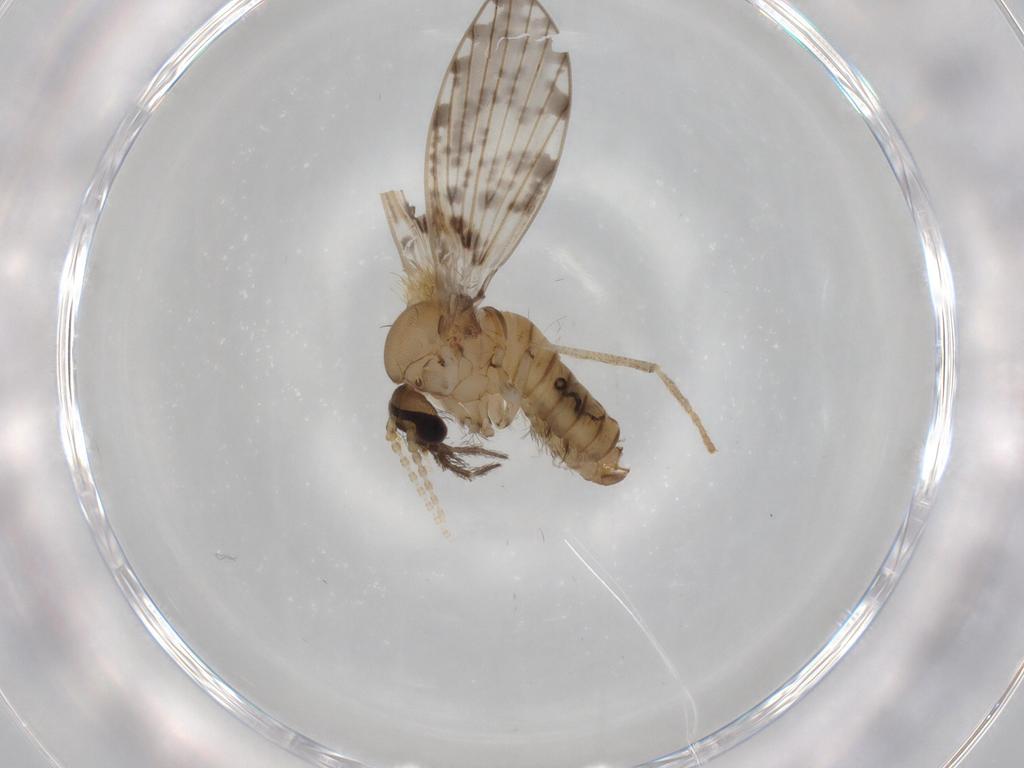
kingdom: Animalia
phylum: Arthropoda
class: Insecta
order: Diptera
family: Sciaridae
